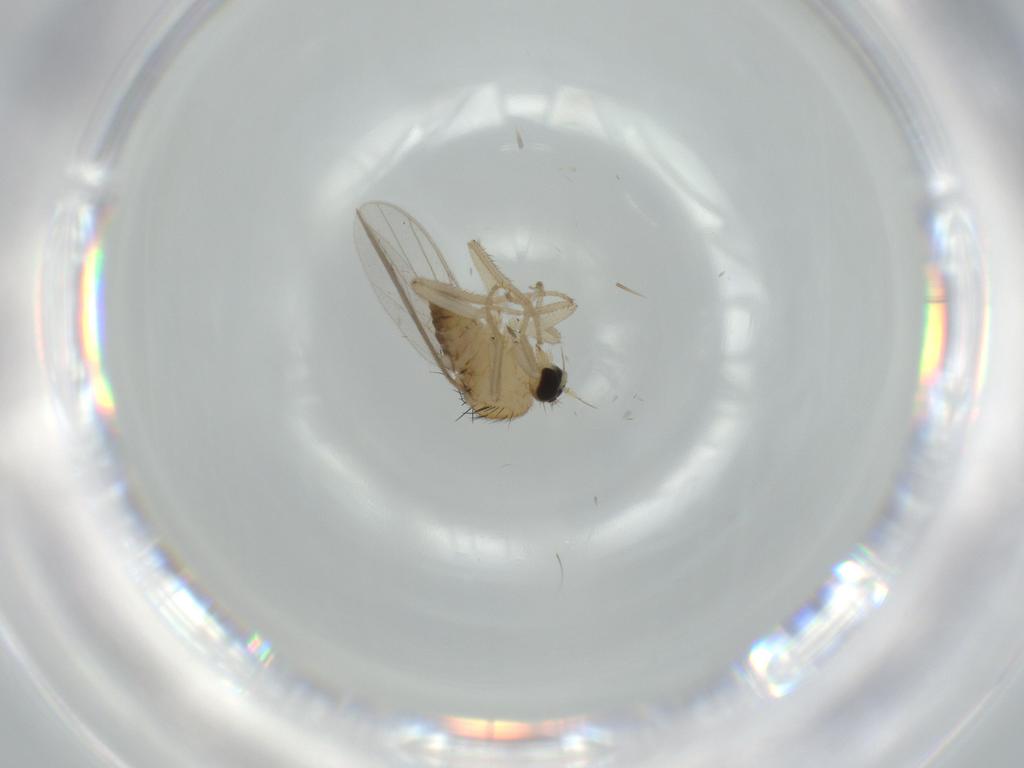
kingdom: Animalia
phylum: Arthropoda
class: Insecta
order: Diptera
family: Hybotidae
